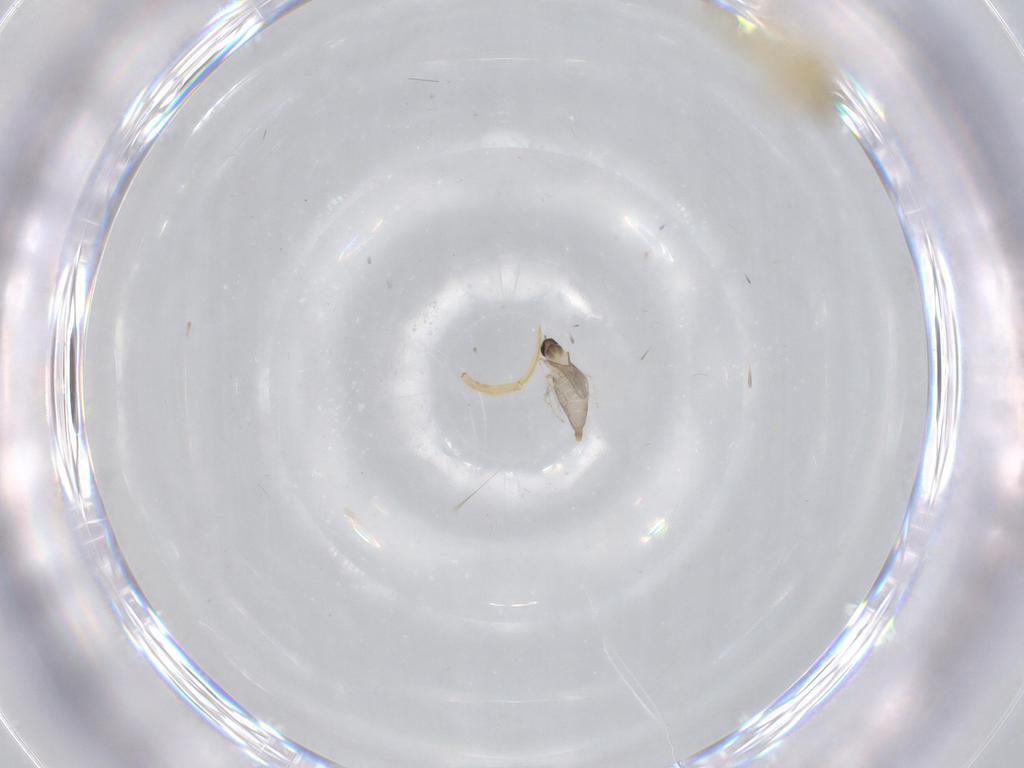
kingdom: Animalia
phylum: Arthropoda
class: Insecta
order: Diptera
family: Chironomidae
